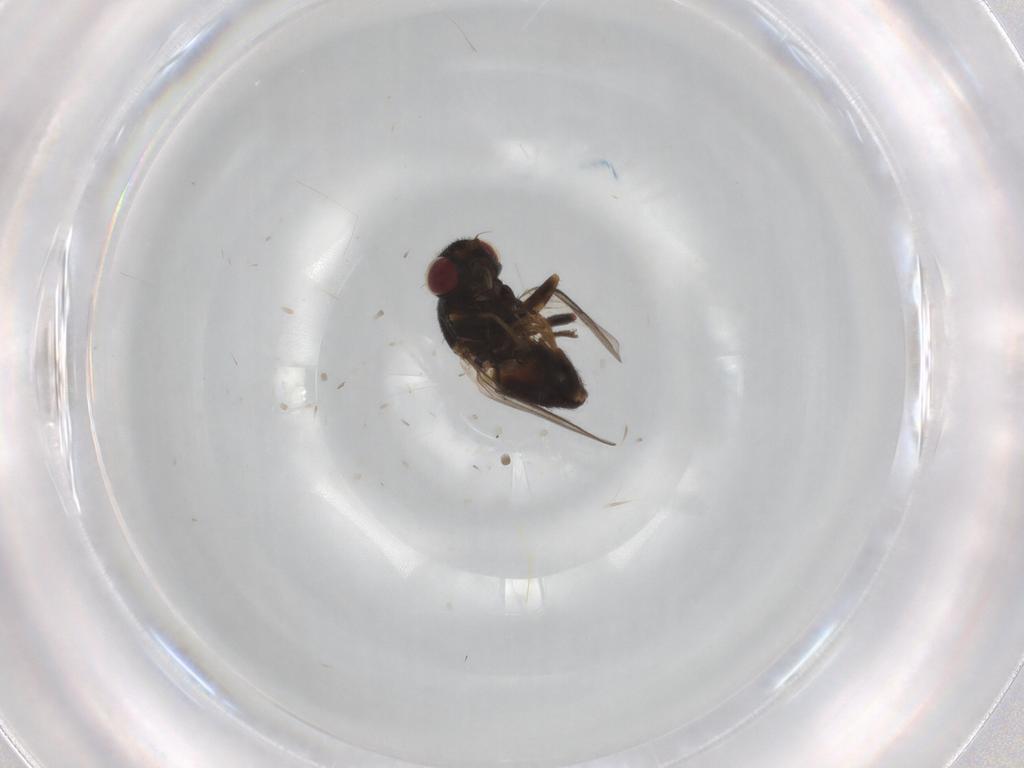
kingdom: Animalia
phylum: Arthropoda
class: Insecta
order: Diptera
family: Chloropidae
